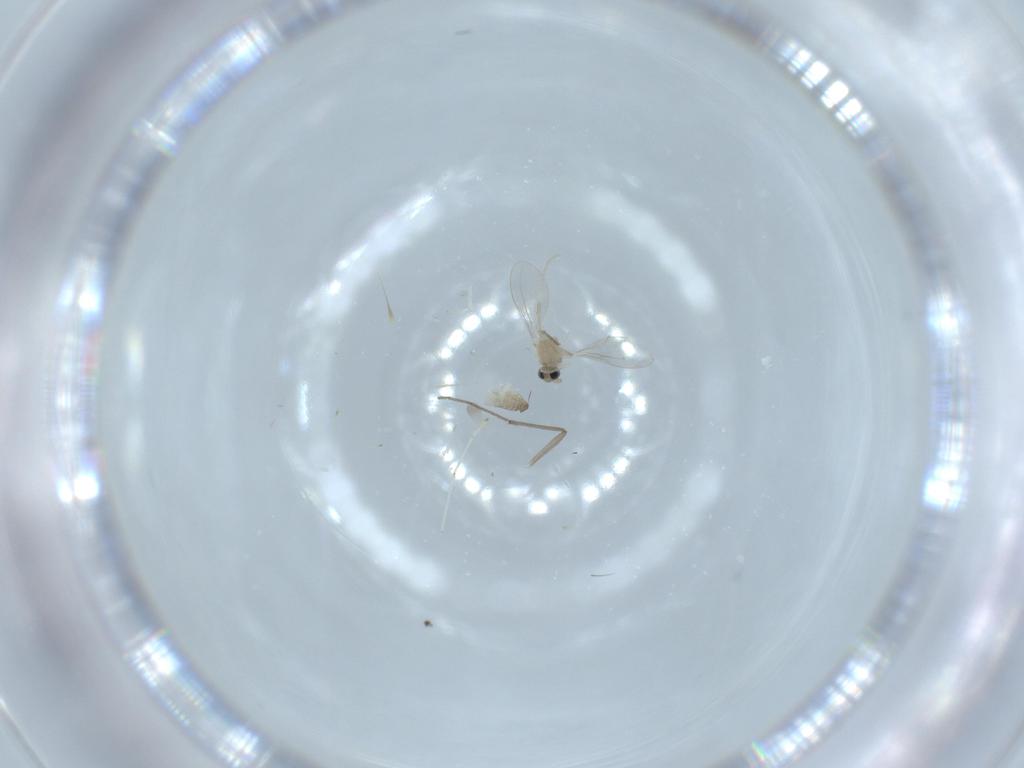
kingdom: Animalia
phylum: Arthropoda
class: Insecta
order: Diptera
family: Cecidomyiidae
